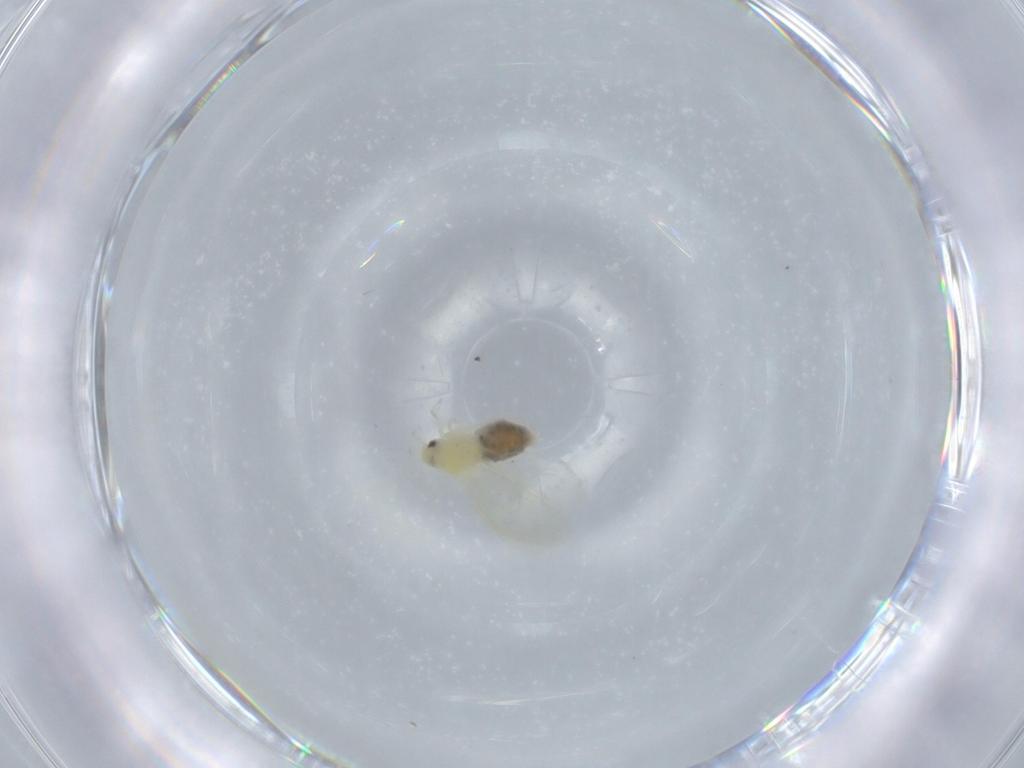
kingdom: Animalia
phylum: Arthropoda
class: Insecta
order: Hemiptera
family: Aleyrodidae
